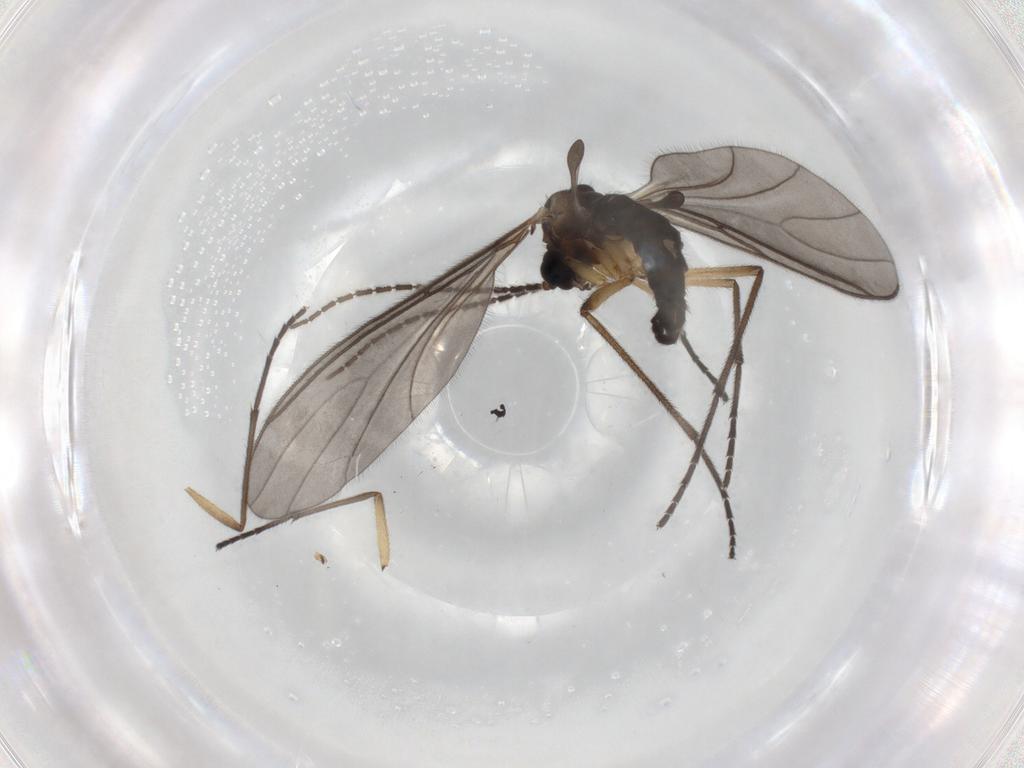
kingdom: Animalia
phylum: Arthropoda
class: Insecta
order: Diptera
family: Sciaridae
